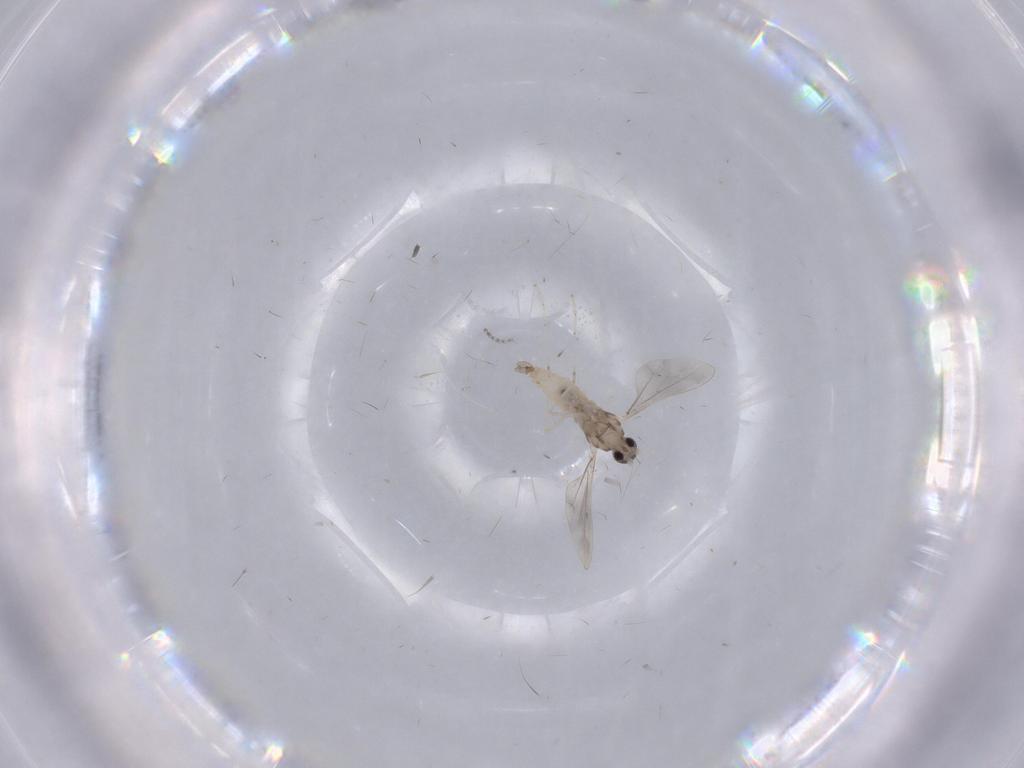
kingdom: Animalia
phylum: Arthropoda
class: Insecta
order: Diptera
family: Cecidomyiidae
